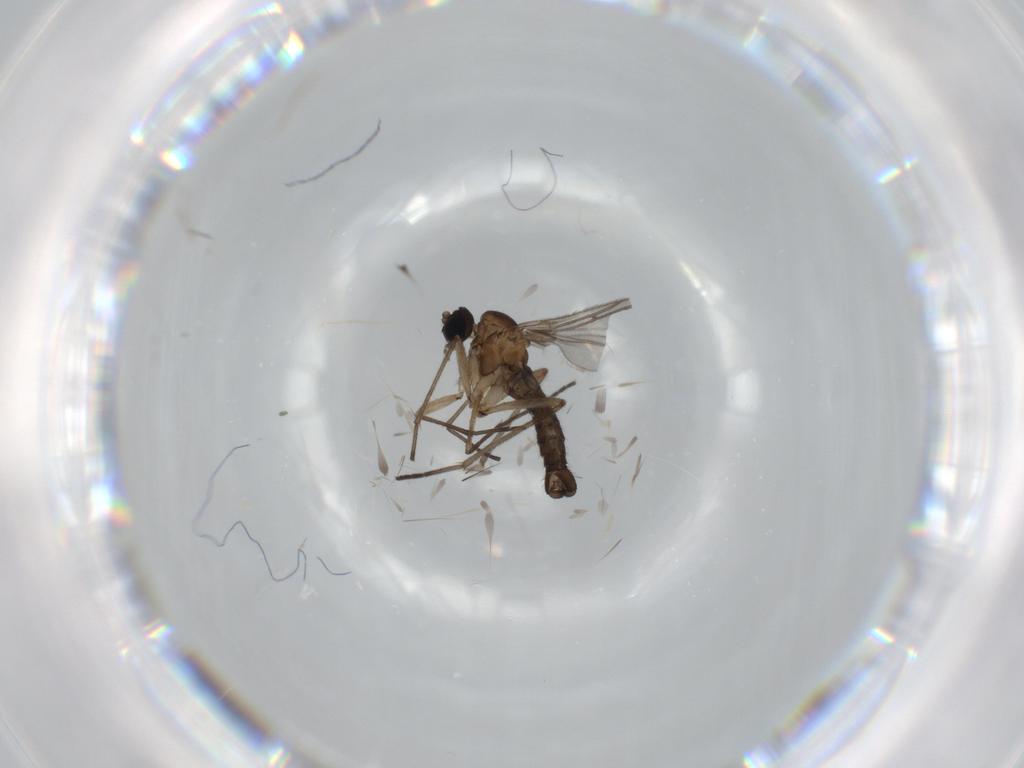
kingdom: Animalia
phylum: Arthropoda
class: Insecta
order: Diptera
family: Sciaridae
